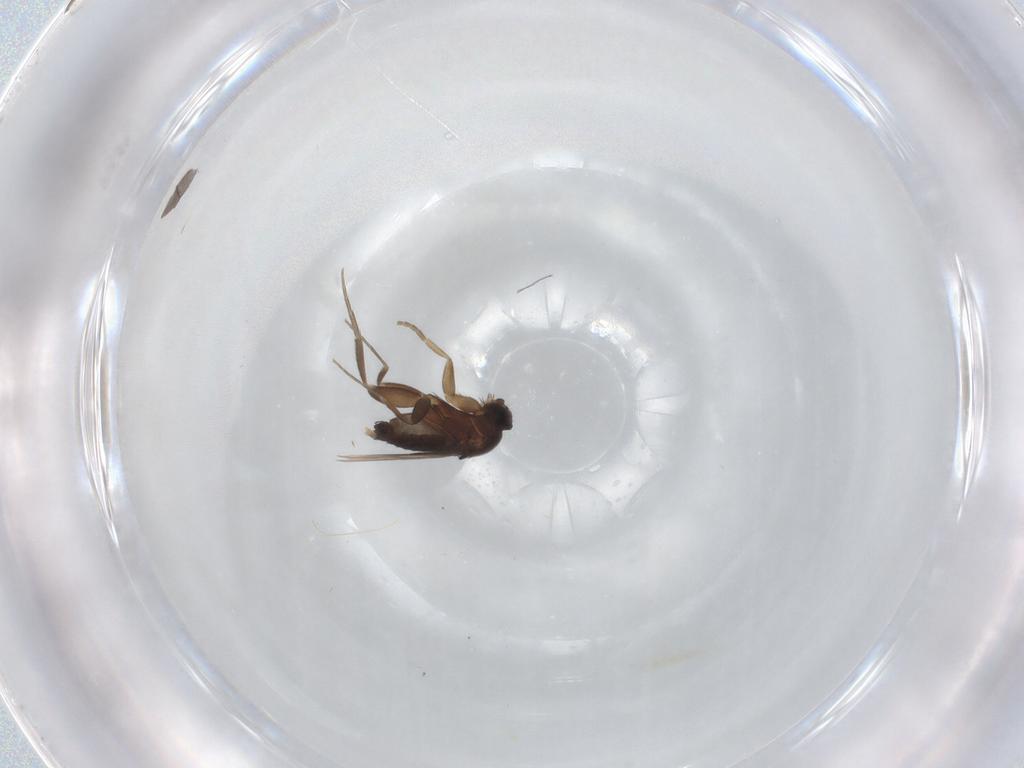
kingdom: Animalia
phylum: Arthropoda
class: Insecta
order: Diptera
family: Phoridae
